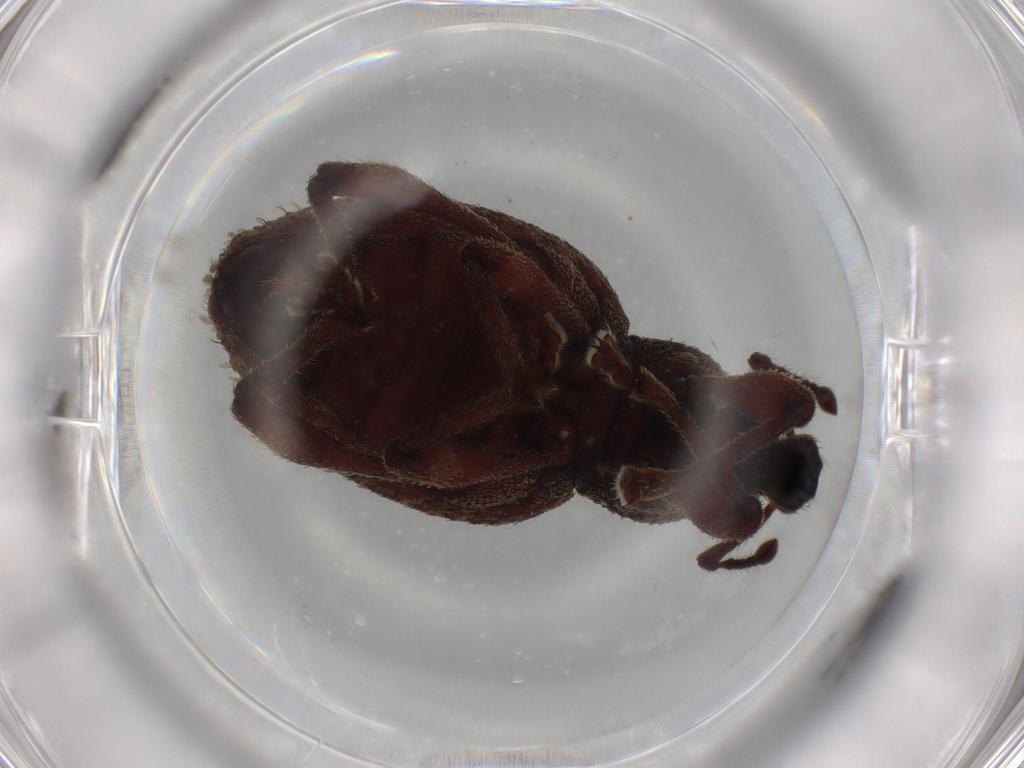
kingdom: Animalia
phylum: Arthropoda
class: Insecta
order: Coleoptera
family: Curculionidae
